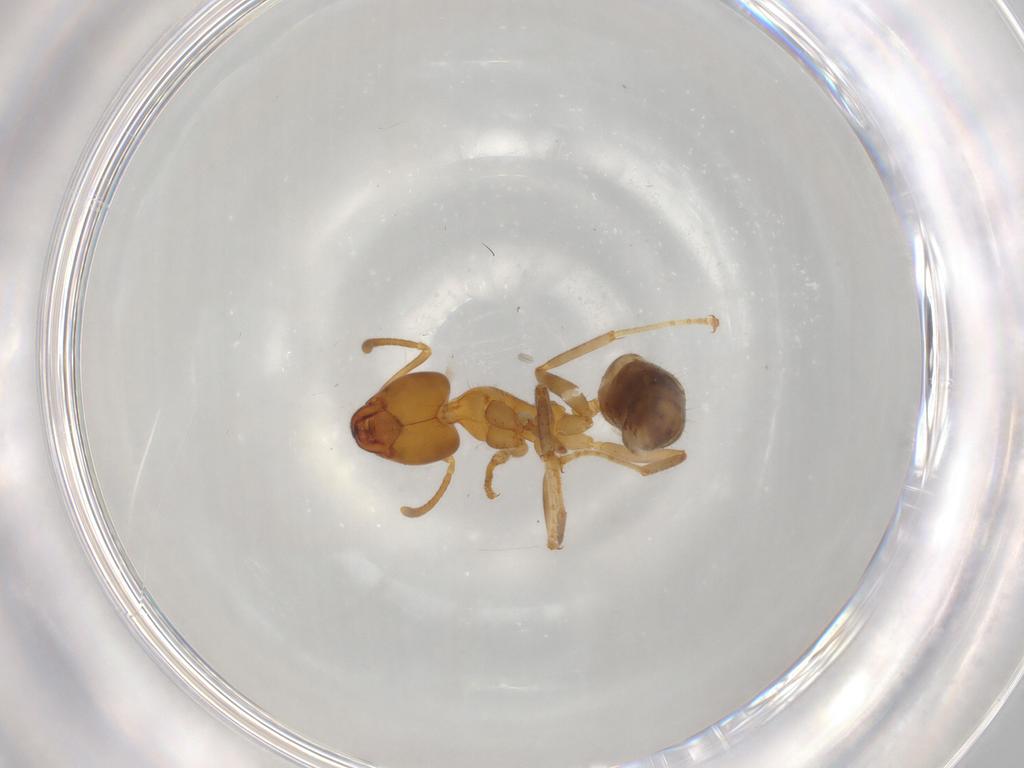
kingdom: Animalia
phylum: Arthropoda
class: Insecta
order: Hymenoptera
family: Formicidae
